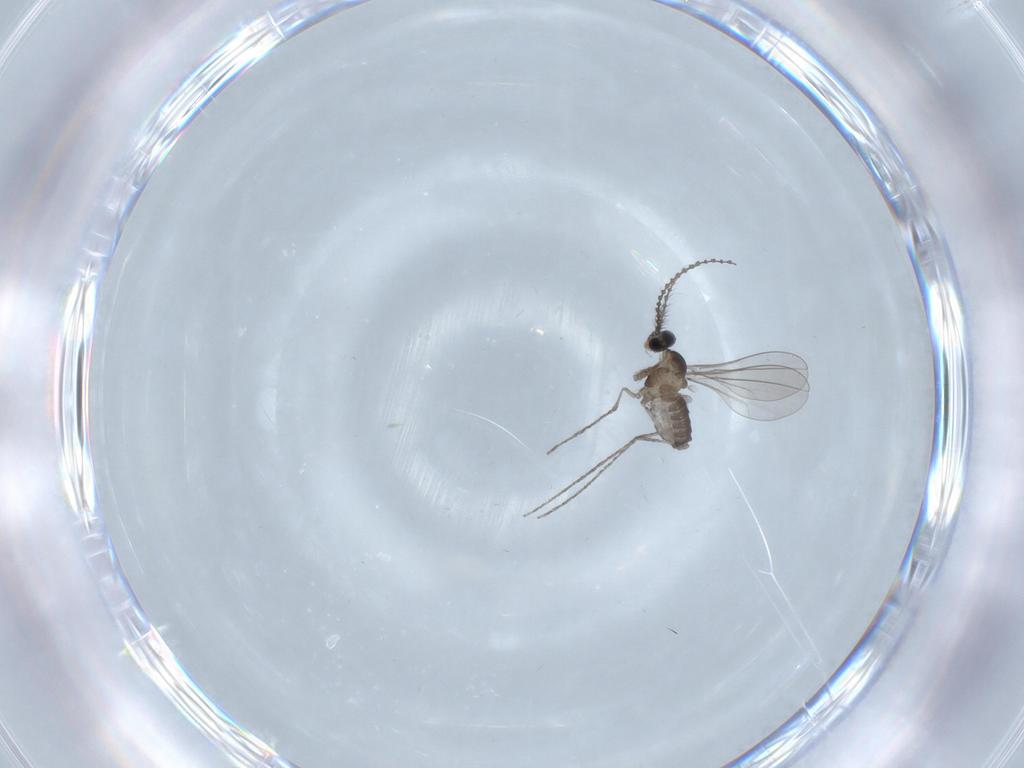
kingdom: Animalia
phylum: Arthropoda
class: Insecta
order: Diptera
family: Cecidomyiidae
